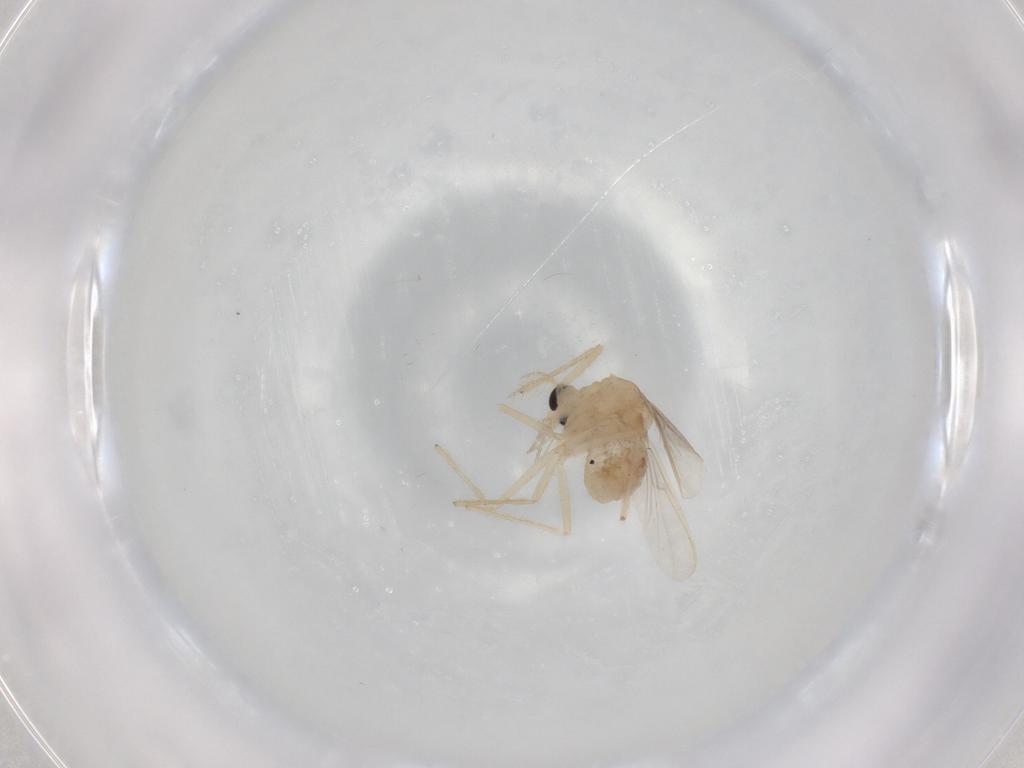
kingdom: Animalia
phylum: Arthropoda
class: Insecta
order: Diptera
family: Chironomidae
